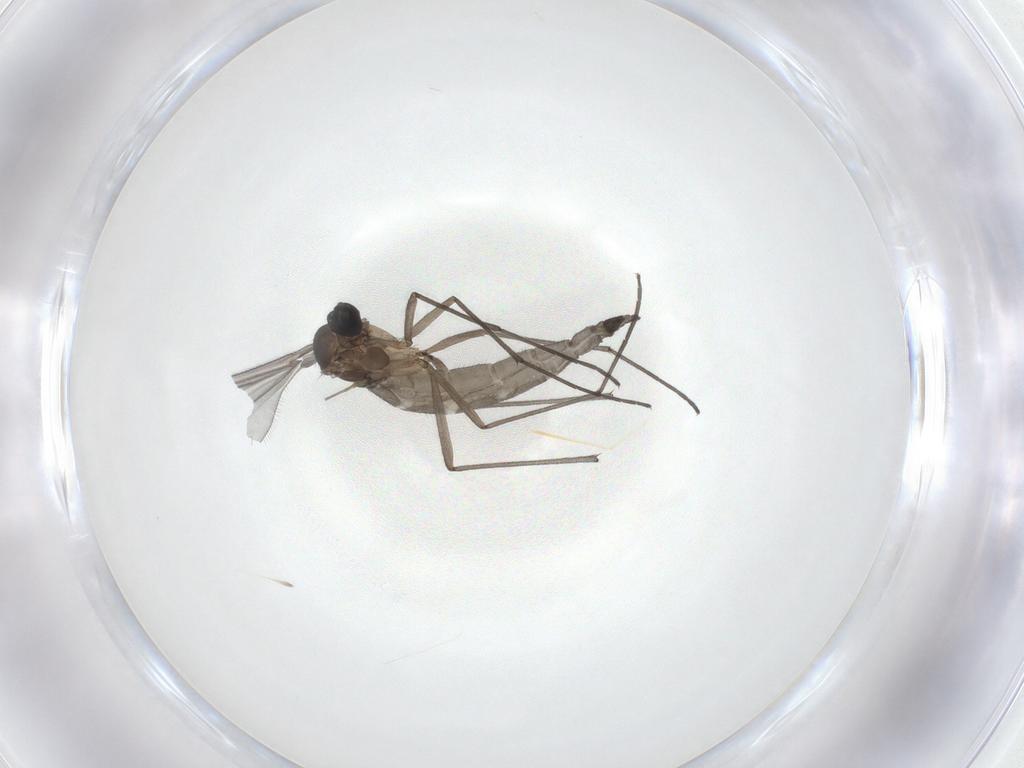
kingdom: Animalia
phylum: Arthropoda
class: Insecta
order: Diptera
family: Sciaridae
